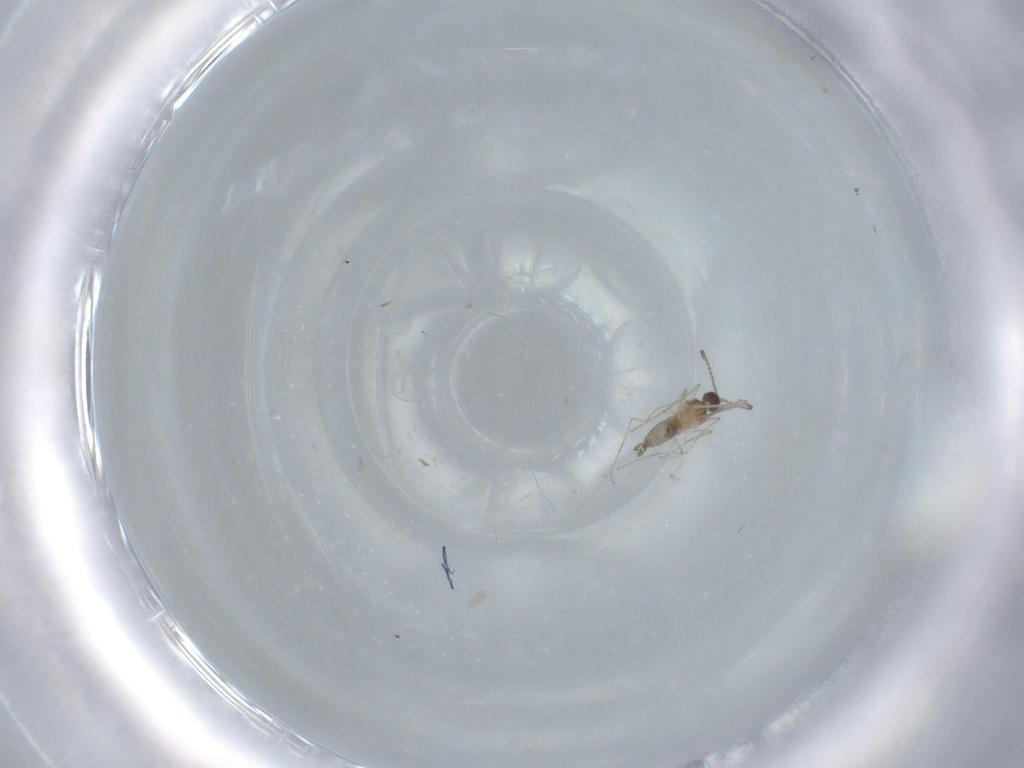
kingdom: Animalia
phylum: Arthropoda
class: Insecta
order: Diptera
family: Cecidomyiidae
